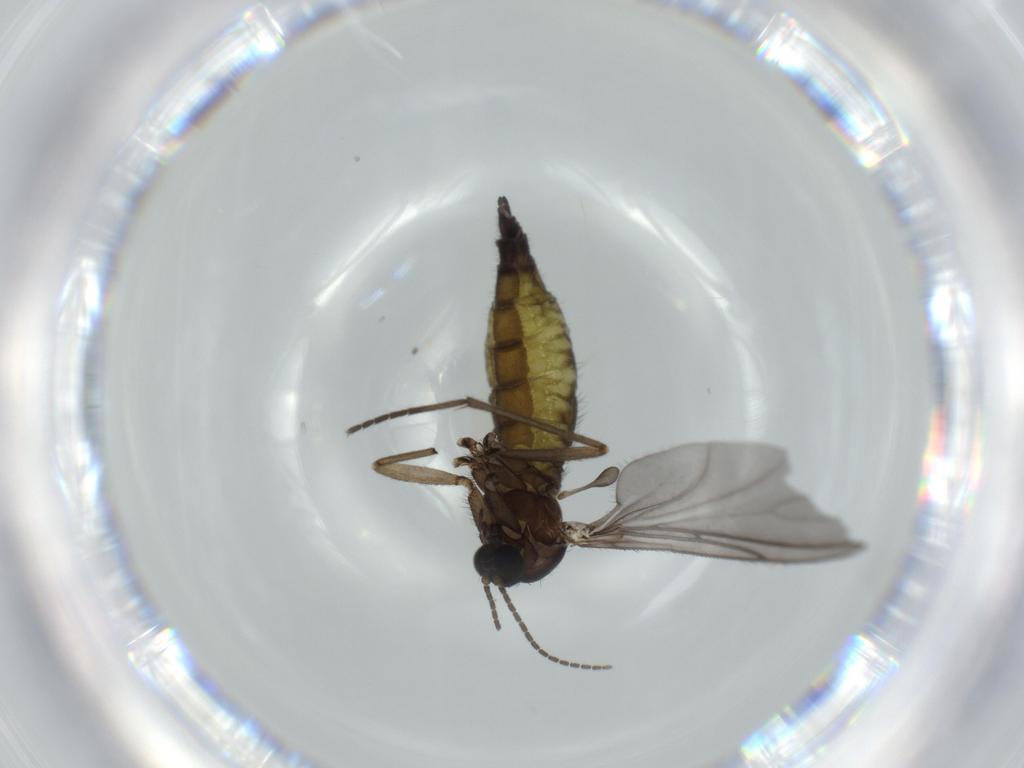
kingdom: Animalia
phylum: Arthropoda
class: Insecta
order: Diptera
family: Sciaridae
